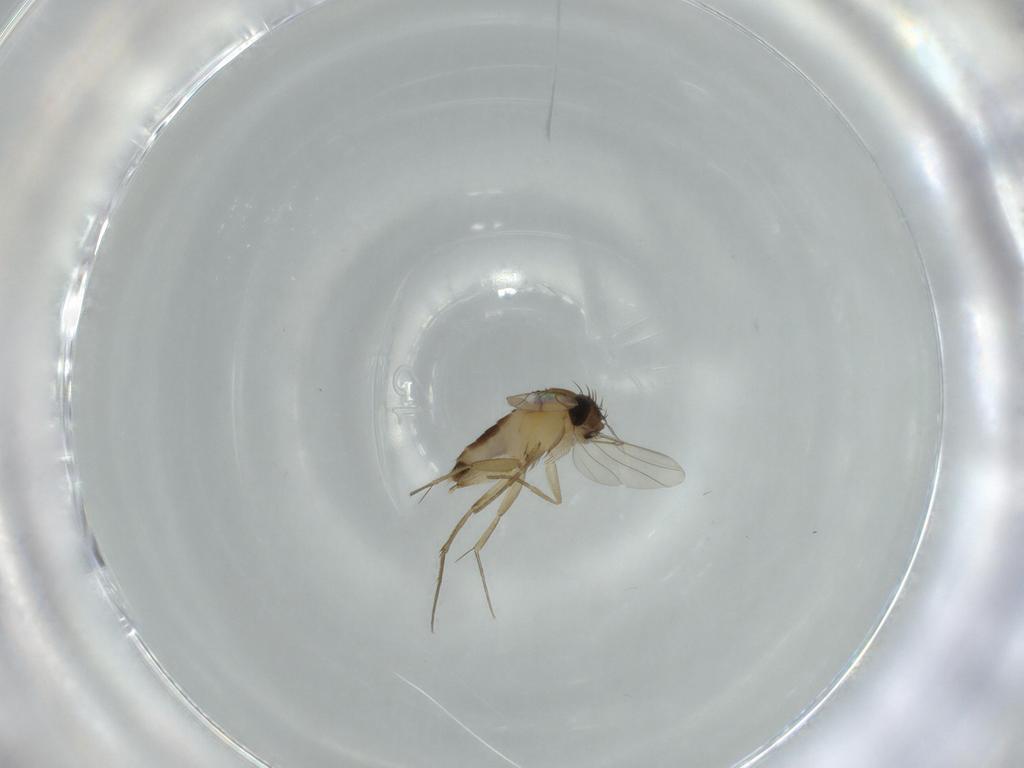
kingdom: Animalia
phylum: Arthropoda
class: Insecta
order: Diptera
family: Phoridae
